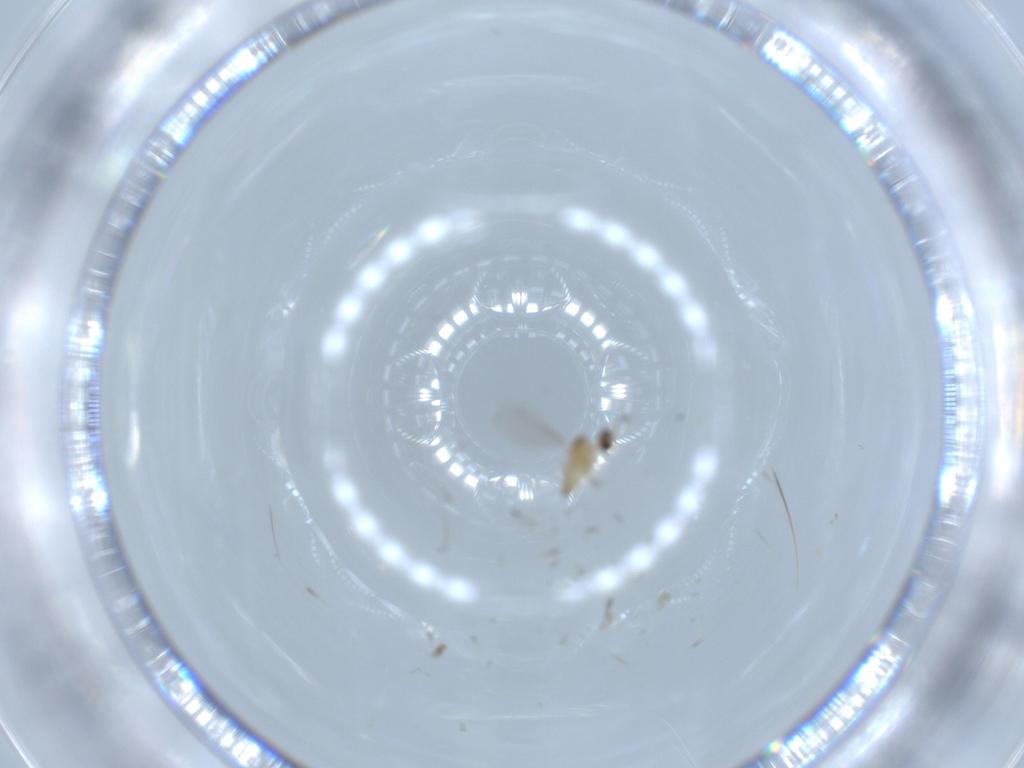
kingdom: Animalia
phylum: Arthropoda
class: Insecta
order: Diptera
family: Cecidomyiidae
